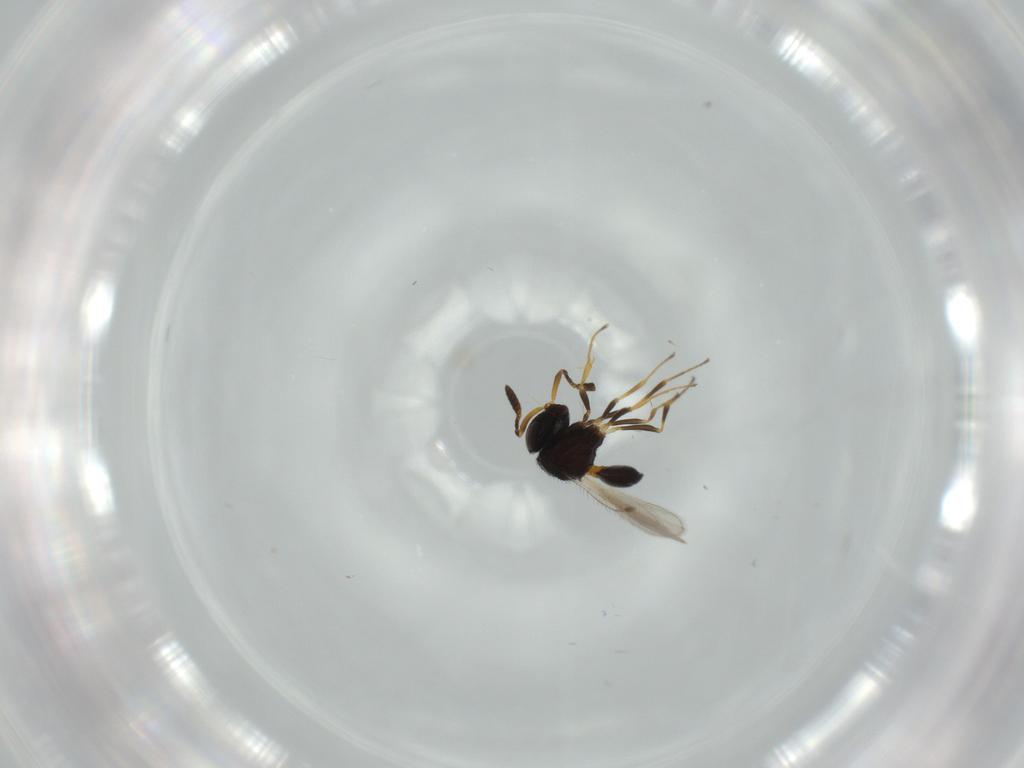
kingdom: Animalia
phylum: Arthropoda
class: Insecta
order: Hymenoptera
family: Scelionidae
